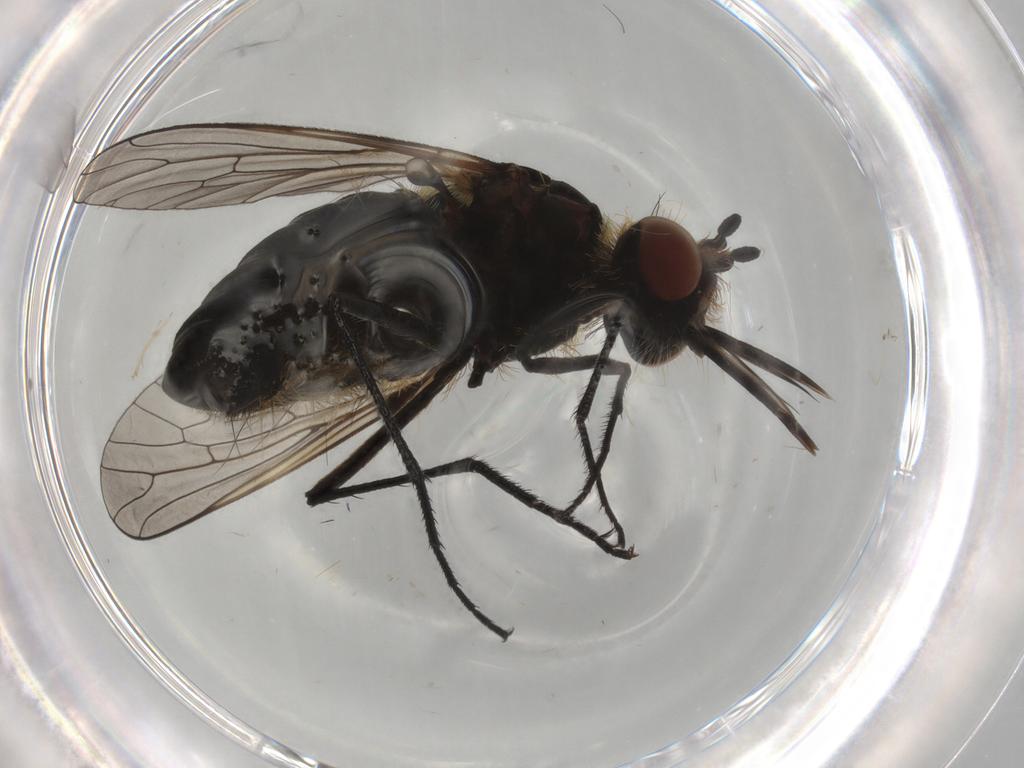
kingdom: Animalia
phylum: Arthropoda
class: Insecta
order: Diptera
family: Bombyliidae
